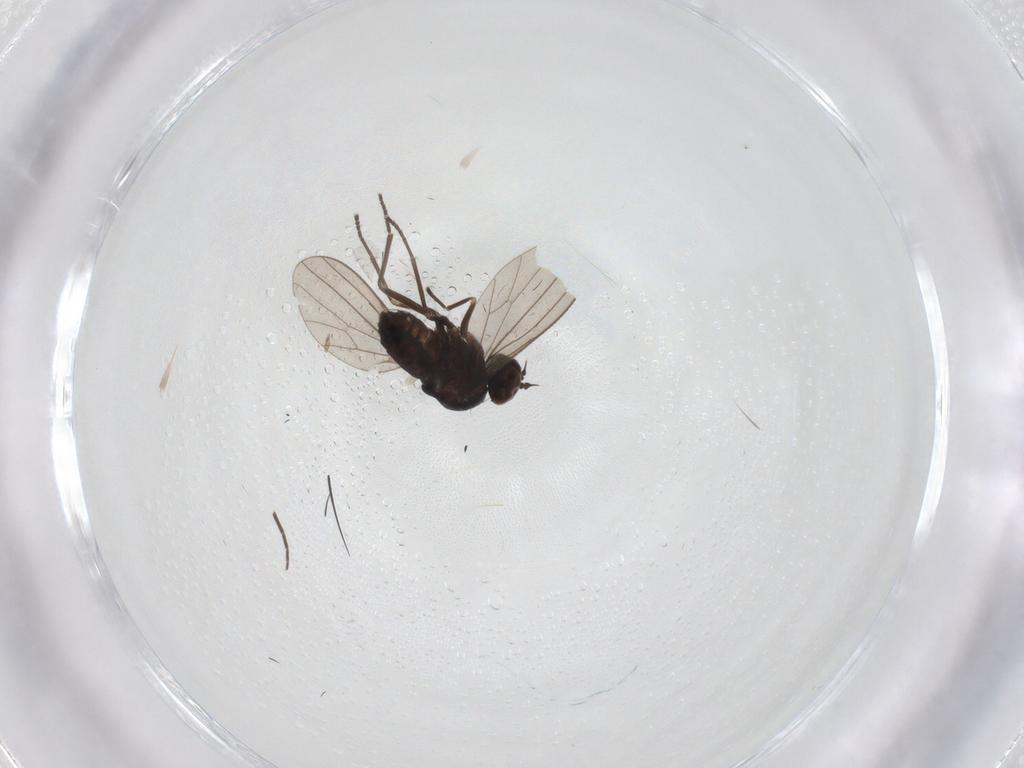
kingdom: Animalia
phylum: Arthropoda
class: Insecta
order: Diptera
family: Dolichopodidae
